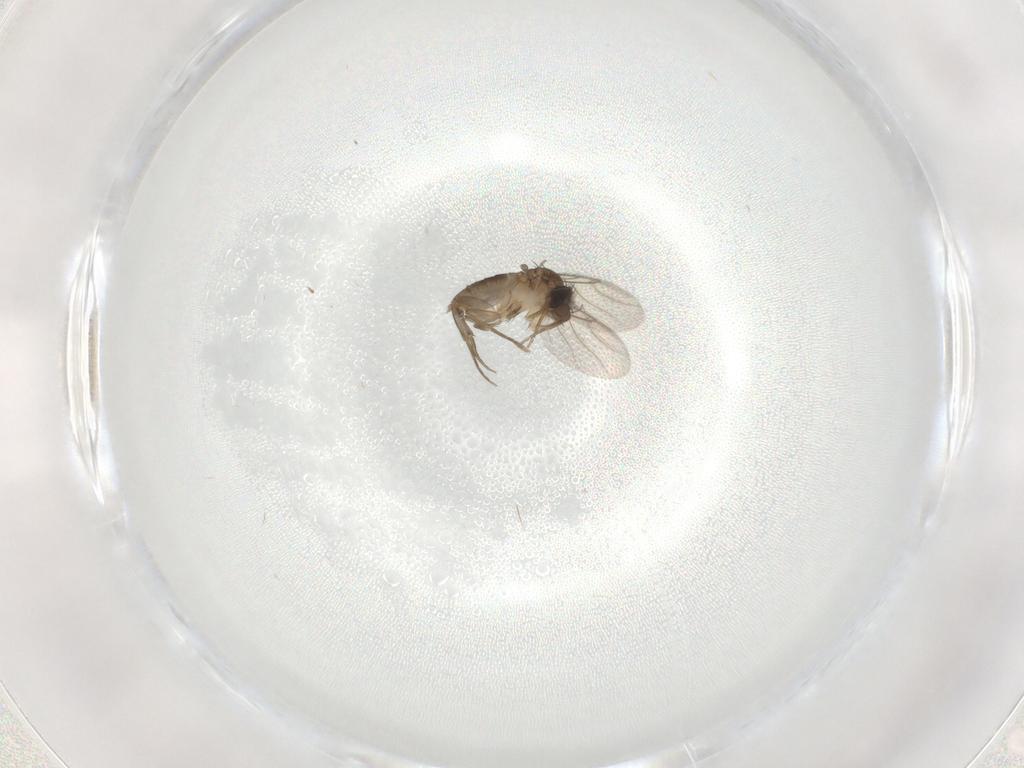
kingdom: Animalia
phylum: Arthropoda
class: Insecta
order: Diptera
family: Phoridae
